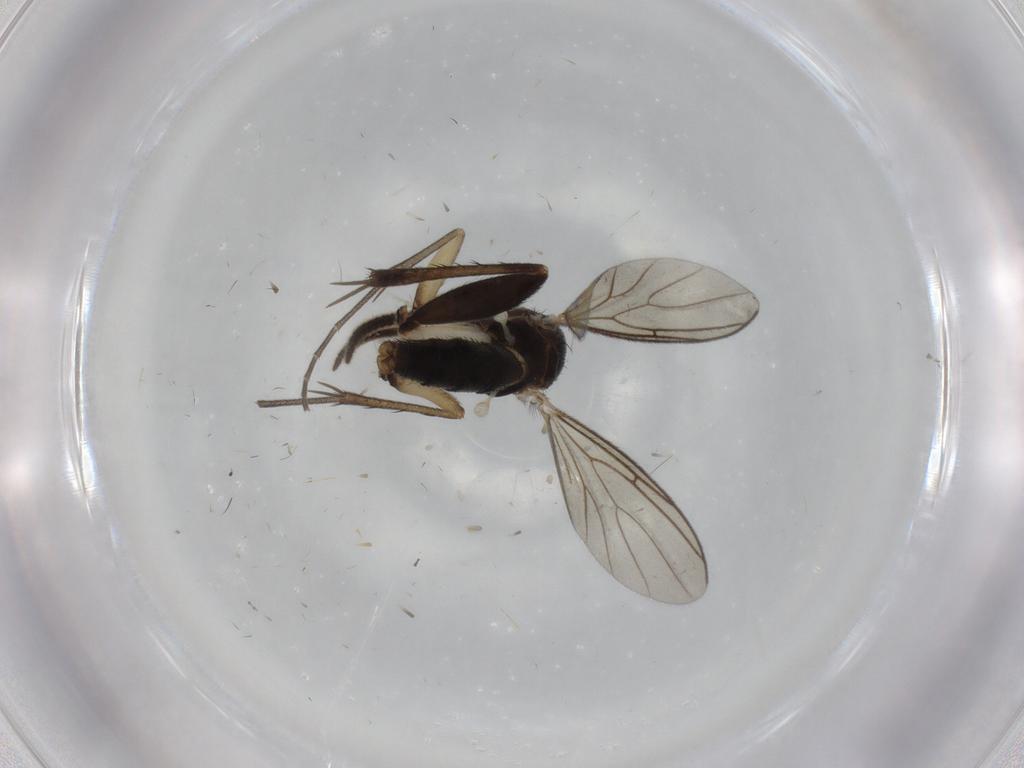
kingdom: Animalia
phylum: Arthropoda
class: Insecta
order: Diptera
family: Mycetophilidae
